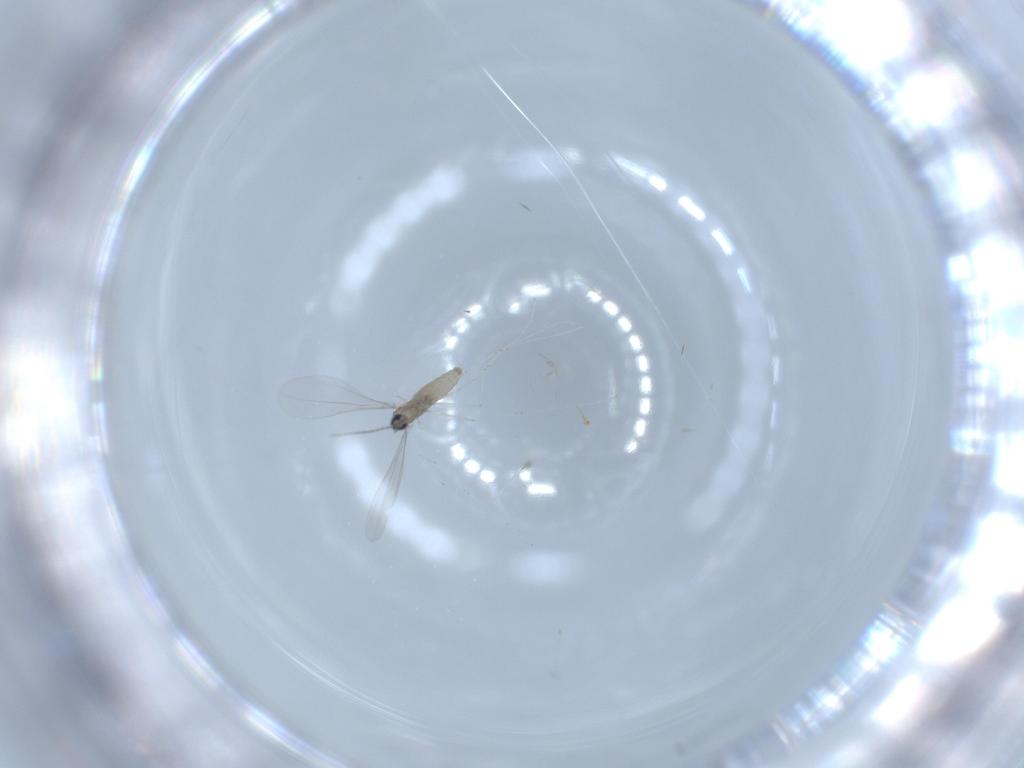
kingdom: Animalia
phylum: Arthropoda
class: Insecta
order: Diptera
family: Cecidomyiidae
